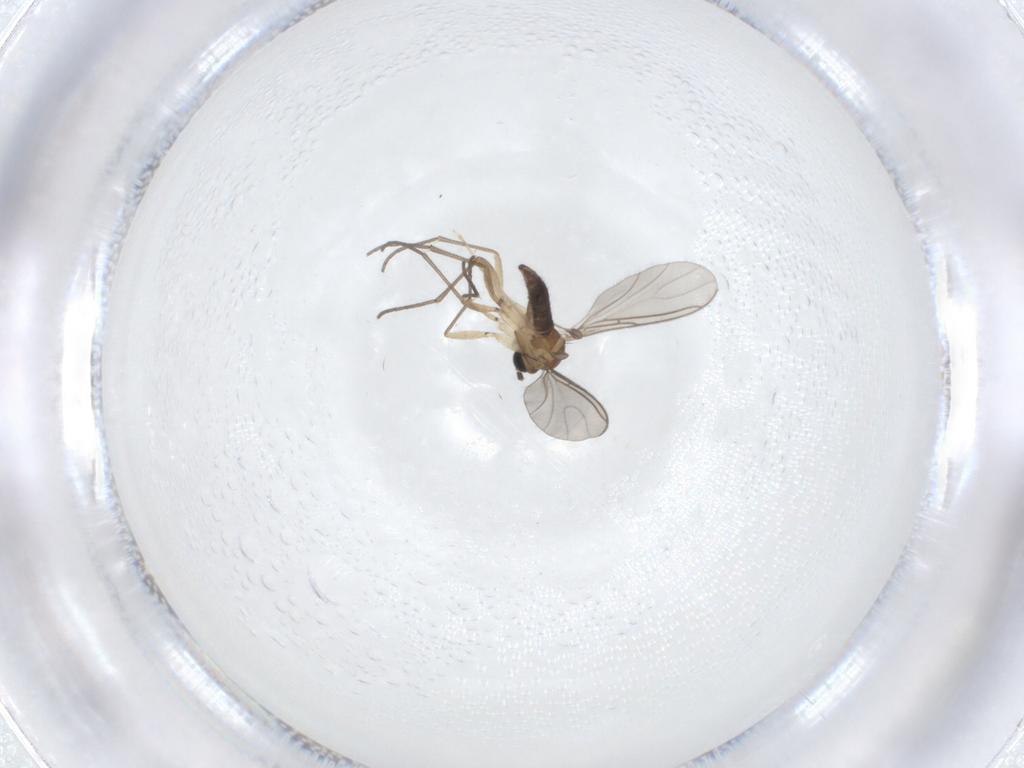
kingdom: Animalia
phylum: Arthropoda
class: Insecta
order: Diptera
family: Sciaridae
